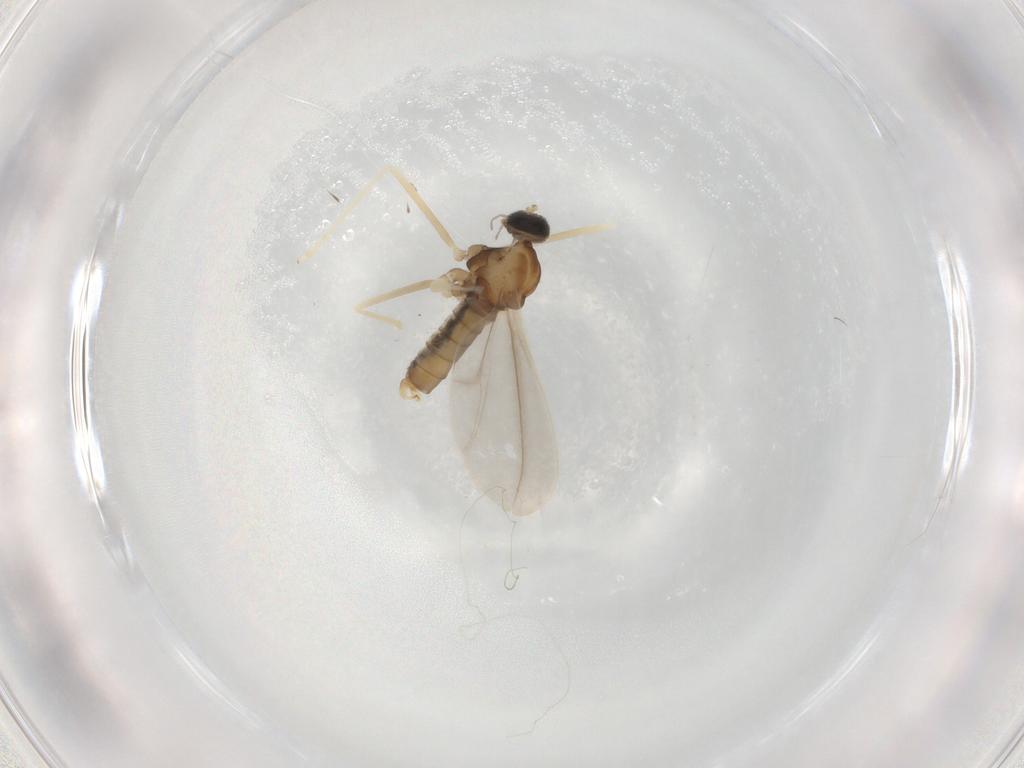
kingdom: Animalia
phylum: Arthropoda
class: Insecta
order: Diptera
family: Cecidomyiidae
